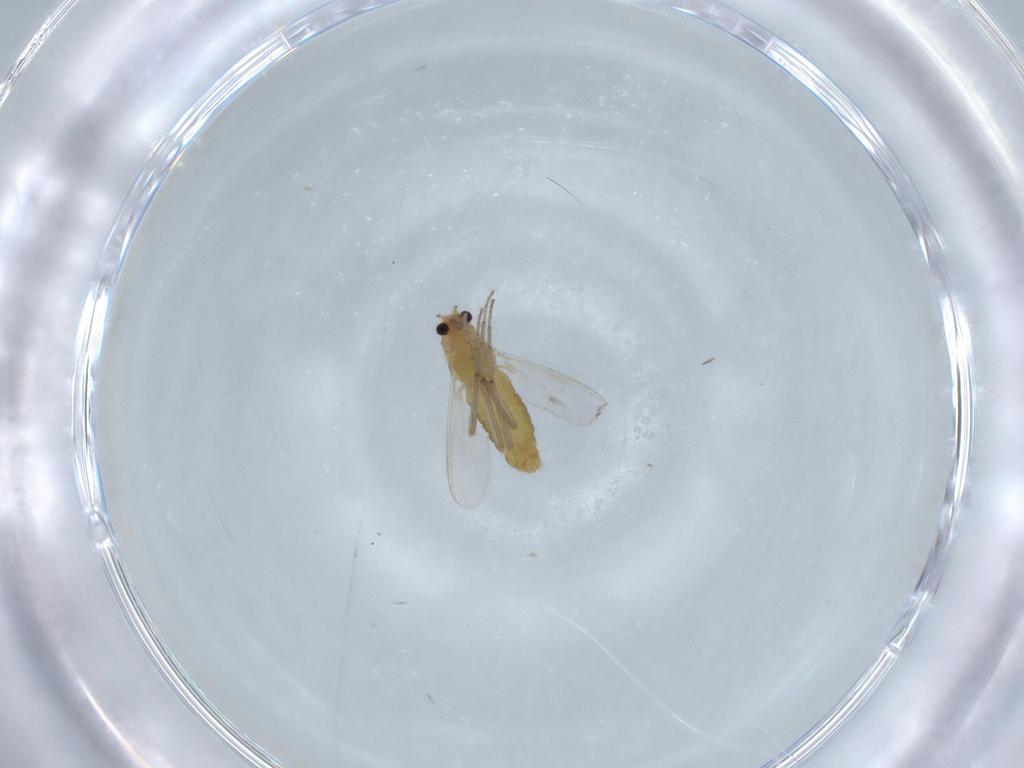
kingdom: Animalia
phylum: Arthropoda
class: Insecta
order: Diptera
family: Chironomidae
